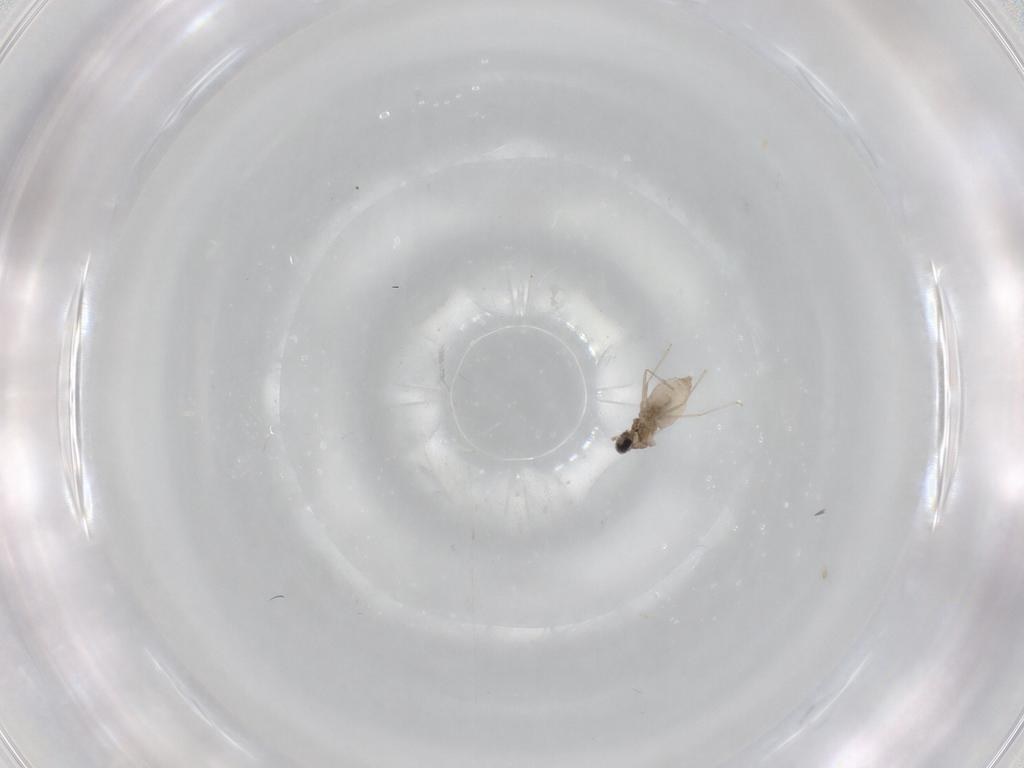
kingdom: Animalia
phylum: Arthropoda
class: Insecta
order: Diptera
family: Cecidomyiidae
